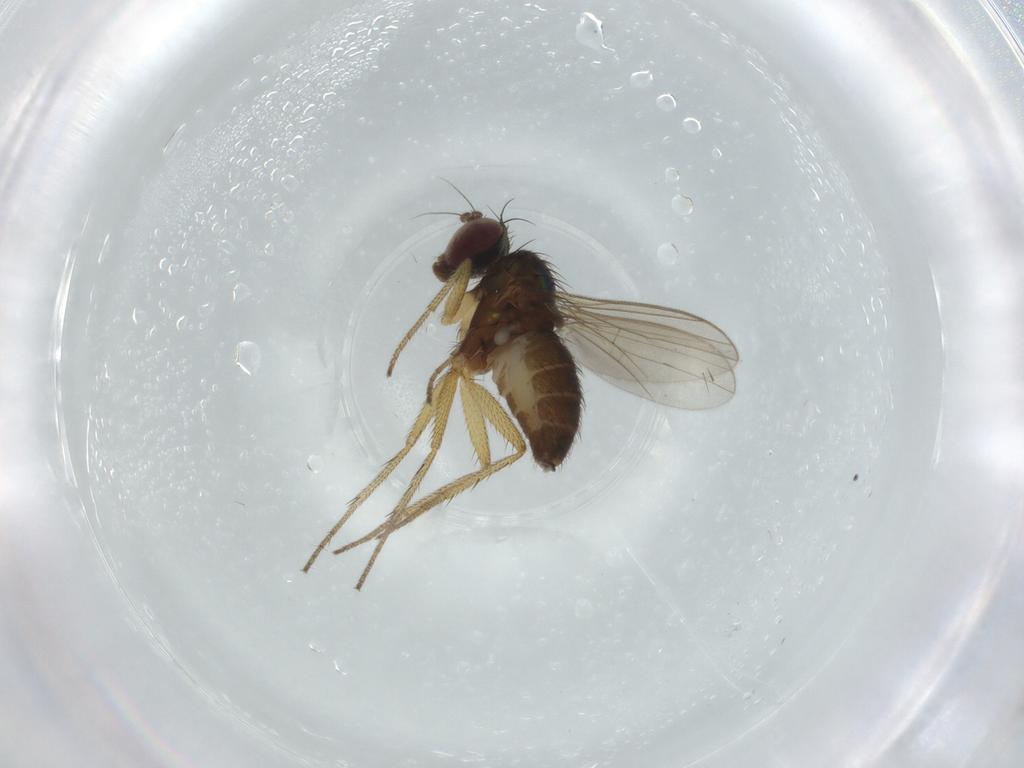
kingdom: Animalia
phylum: Arthropoda
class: Insecta
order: Diptera
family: Dolichopodidae
